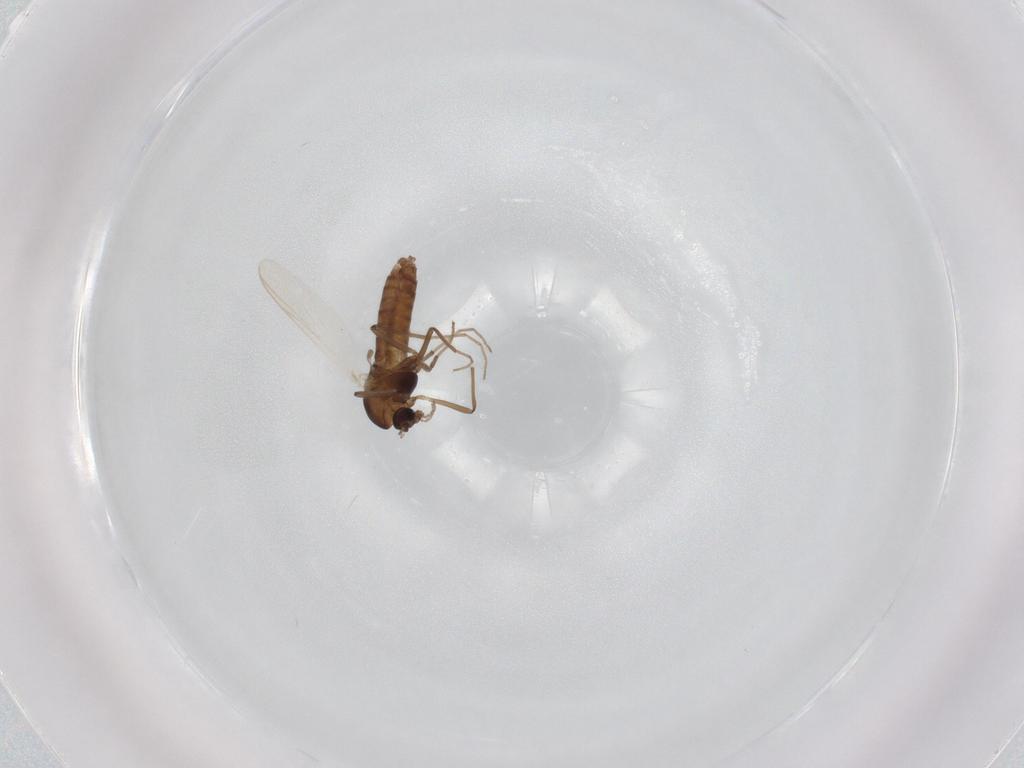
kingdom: Animalia
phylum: Arthropoda
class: Insecta
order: Diptera
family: Chironomidae
